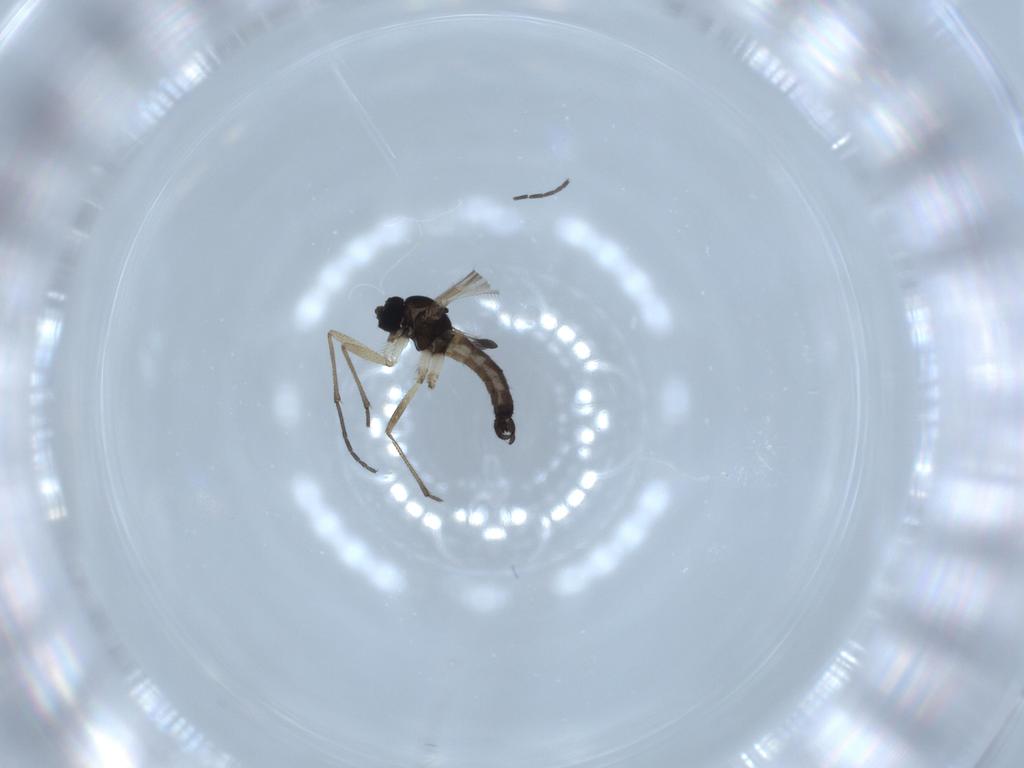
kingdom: Animalia
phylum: Arthropoda
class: Insecta
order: Diptera
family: Sciaridae
